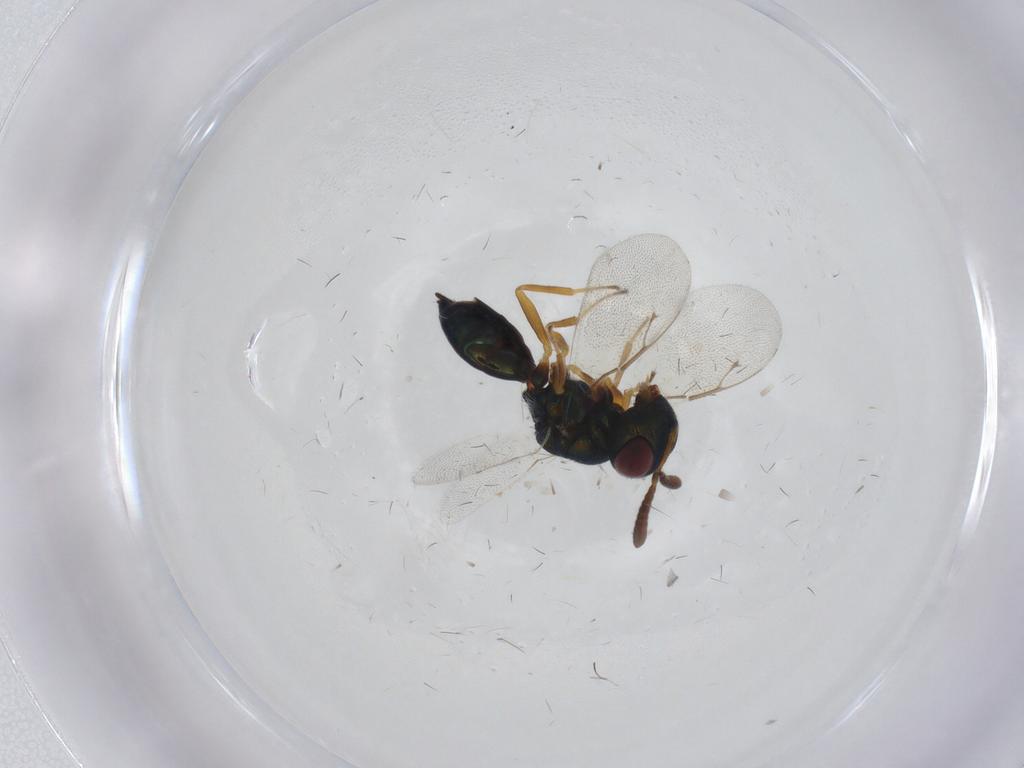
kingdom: Animalia
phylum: Arthropoda
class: Insecta
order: Hymenoptera
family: Pteromalidae
